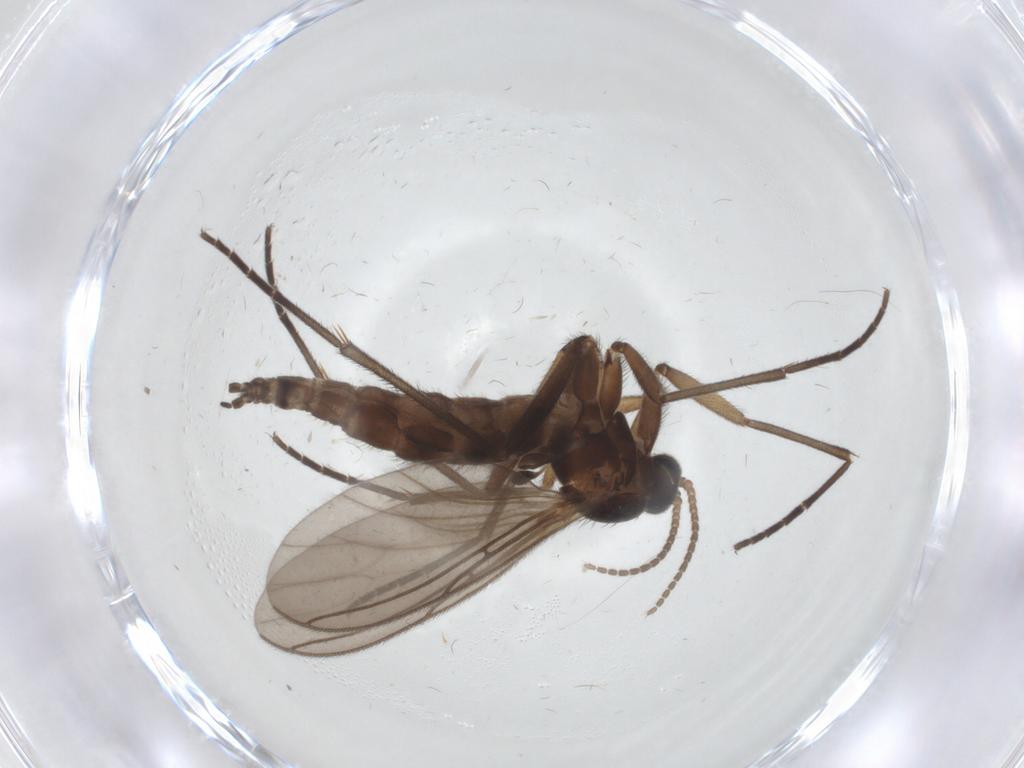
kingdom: Animalia
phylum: Arthropoda
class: Insecta
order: Diptera
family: Sciaridae
